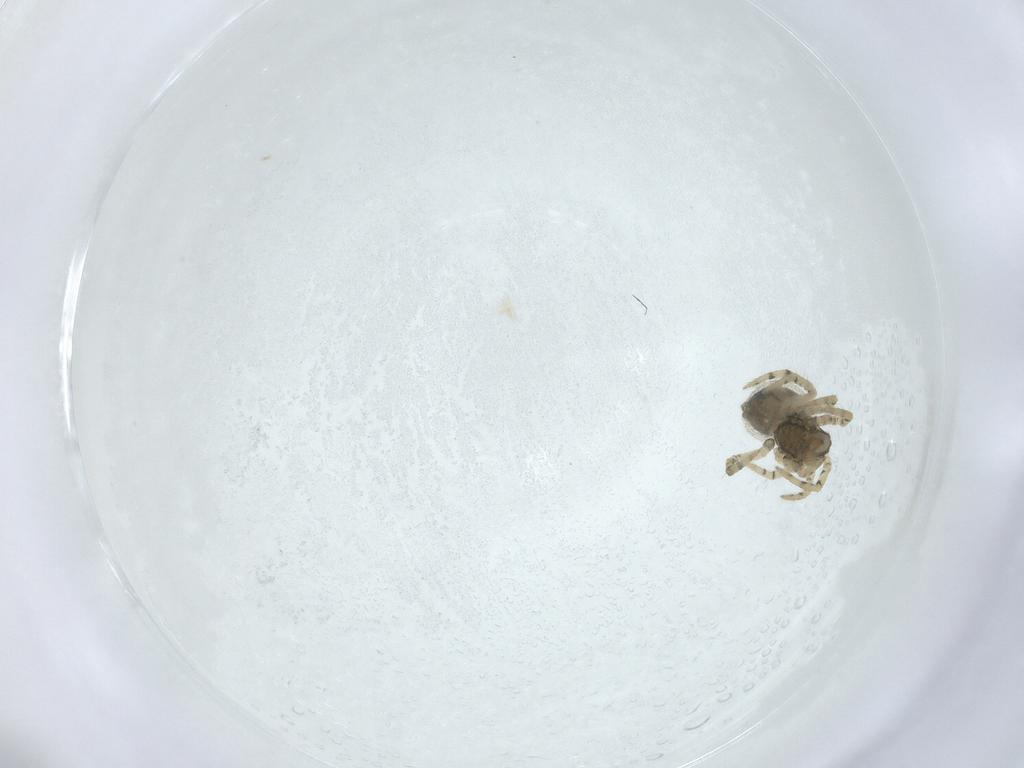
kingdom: Animalia
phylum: Arthropoda
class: Arachnida
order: Araneae
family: Theridiidae
